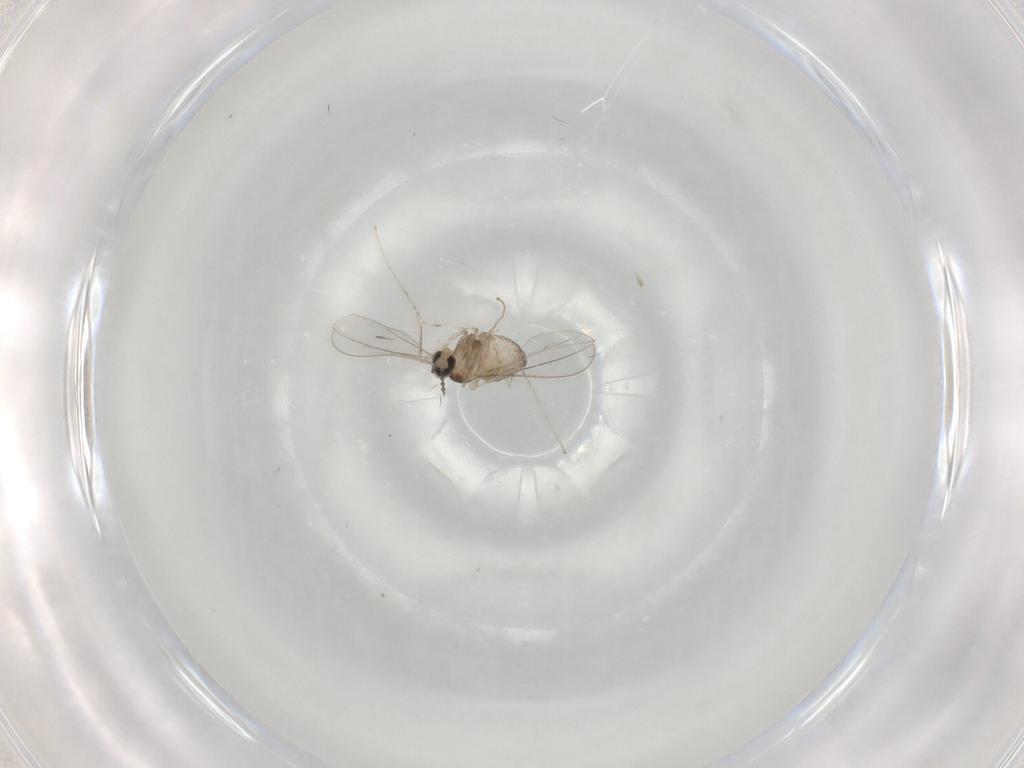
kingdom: Animalia
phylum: Arthropoda
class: Insecta
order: Diptera
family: Cecidomyiidae
